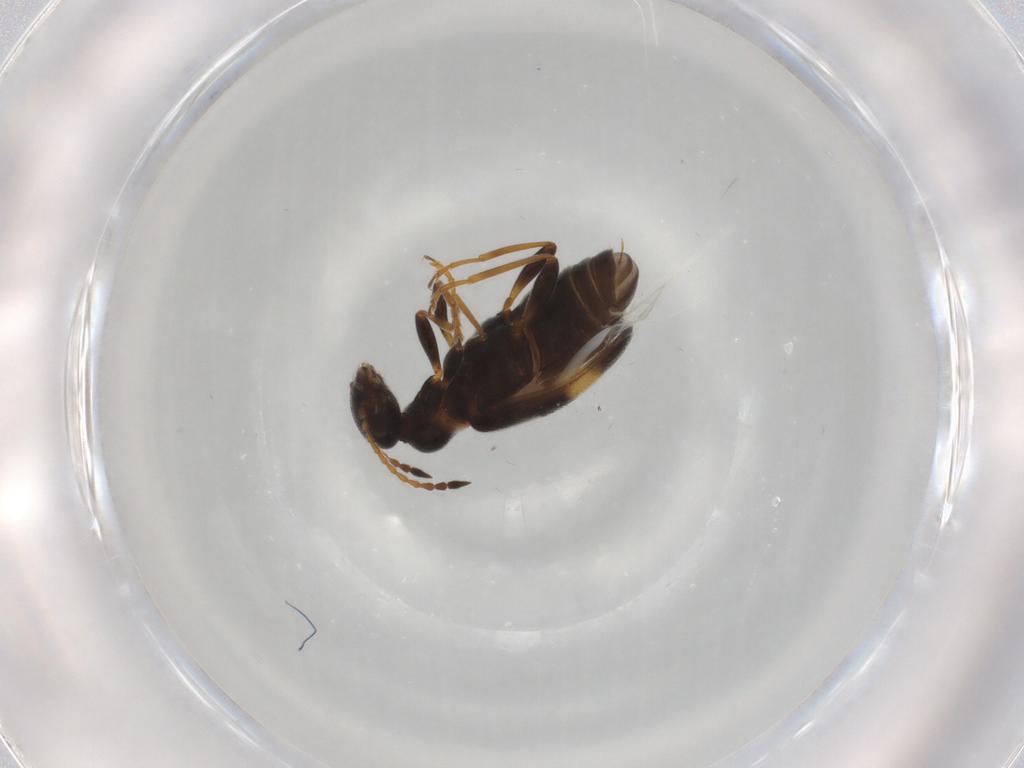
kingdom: Animalia
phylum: Arthropoda
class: Insecta
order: Coleoptera
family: Anthicidae
